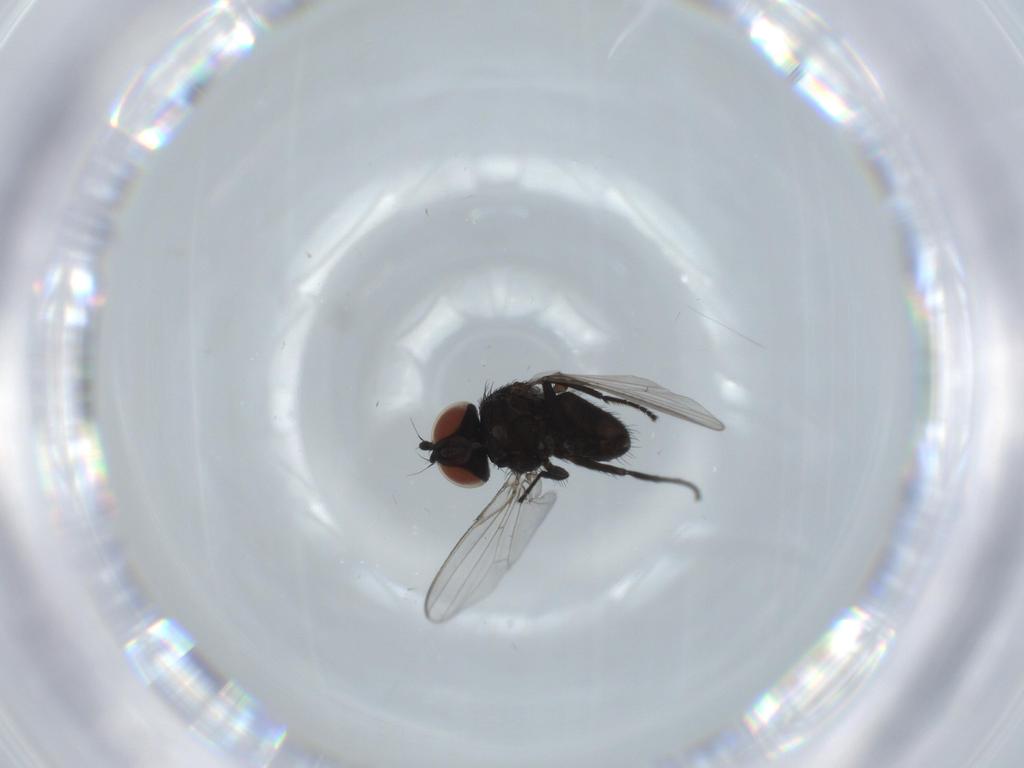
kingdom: Animalia
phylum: Arthropoda
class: Insecta
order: Diptera
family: Milichiidae
